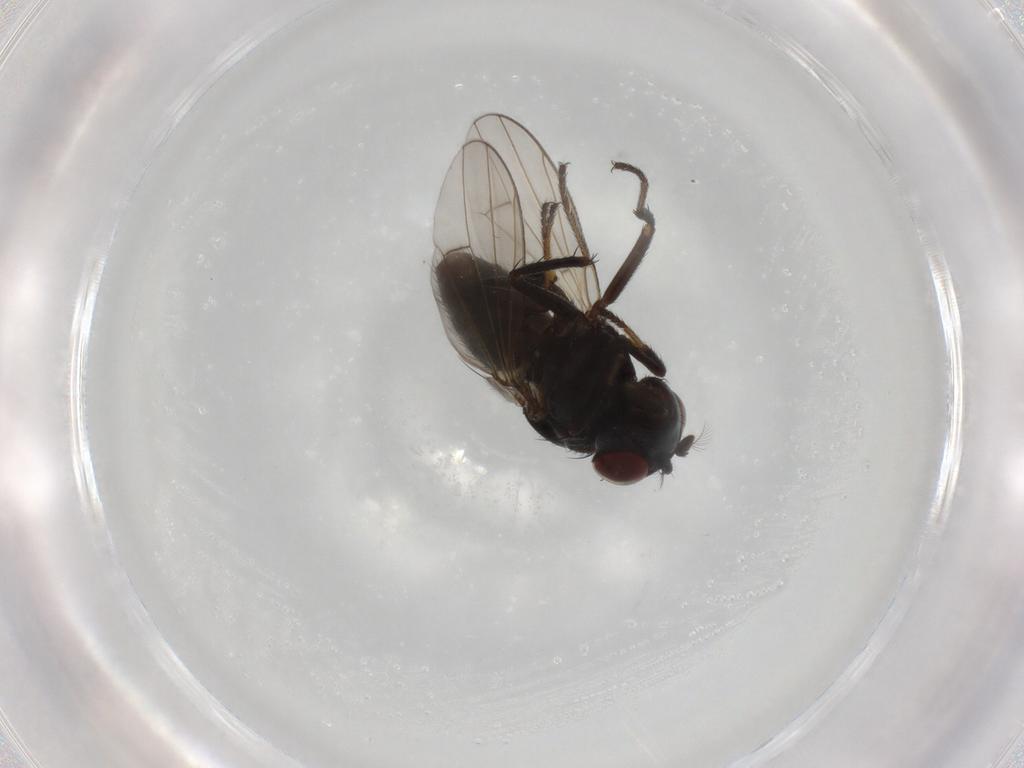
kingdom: Animalia
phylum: Arthropoda
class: Insecta
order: Diptera
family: Ephydridae
